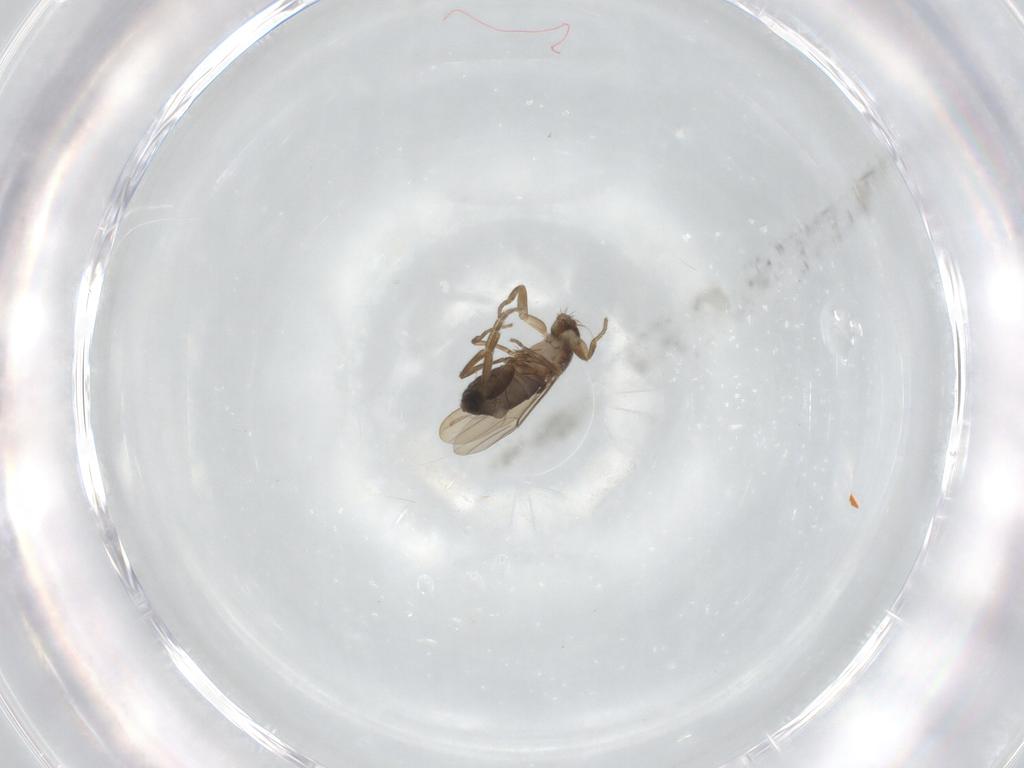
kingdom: Animalia
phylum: Arthropoda
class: Insecta
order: Diptera
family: Phoridae
